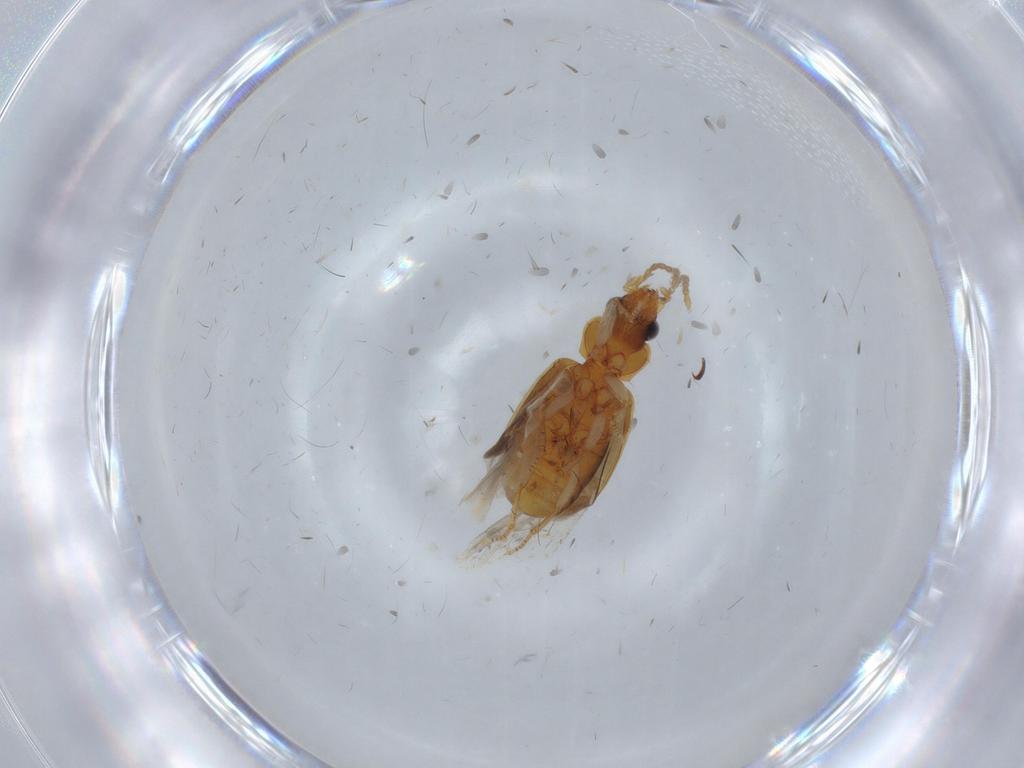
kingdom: Animalia
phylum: Arthropoda
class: Insecta
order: Coleoptera
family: Carabidae
